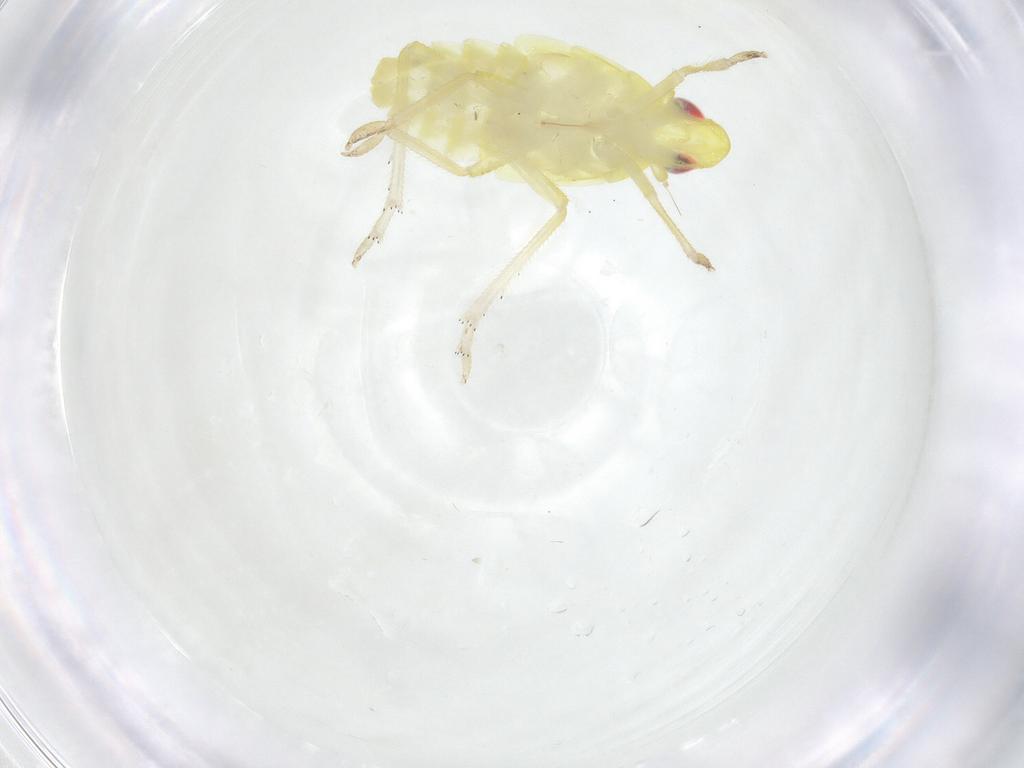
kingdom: Animalia
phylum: Arthropoda
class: Insecta
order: Hemiptera
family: Fulgoroidea_incertae_sedis
